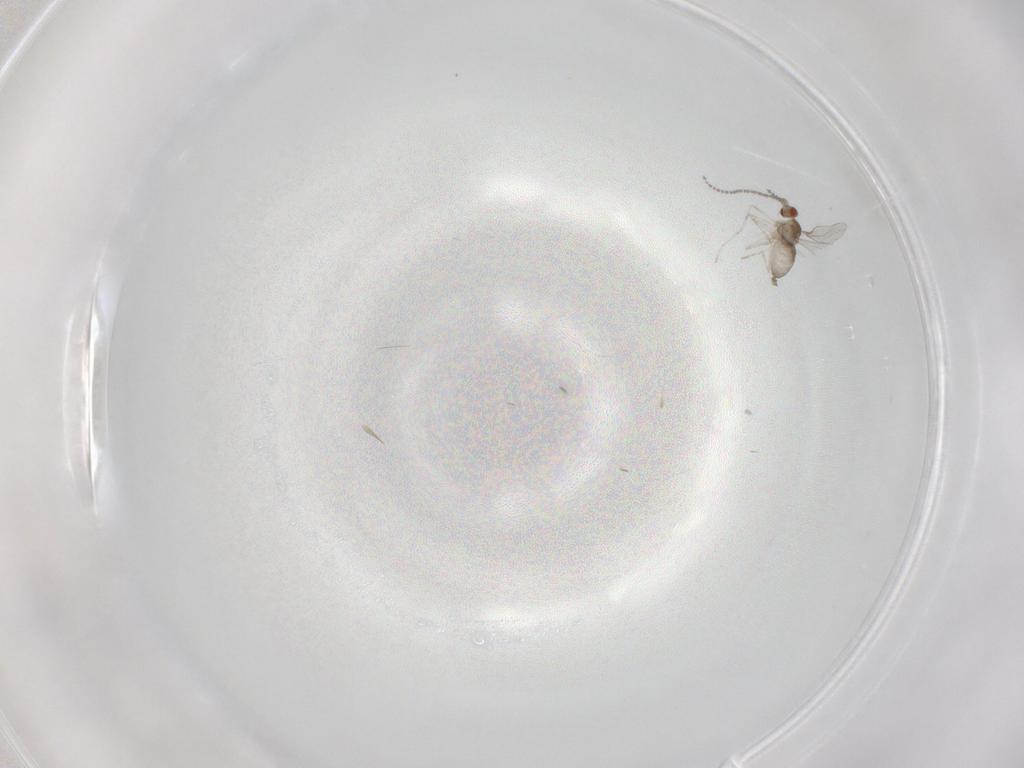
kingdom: Animalia
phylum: Arthropoda
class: Insecta
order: Diptera
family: Cecidomyiidae
